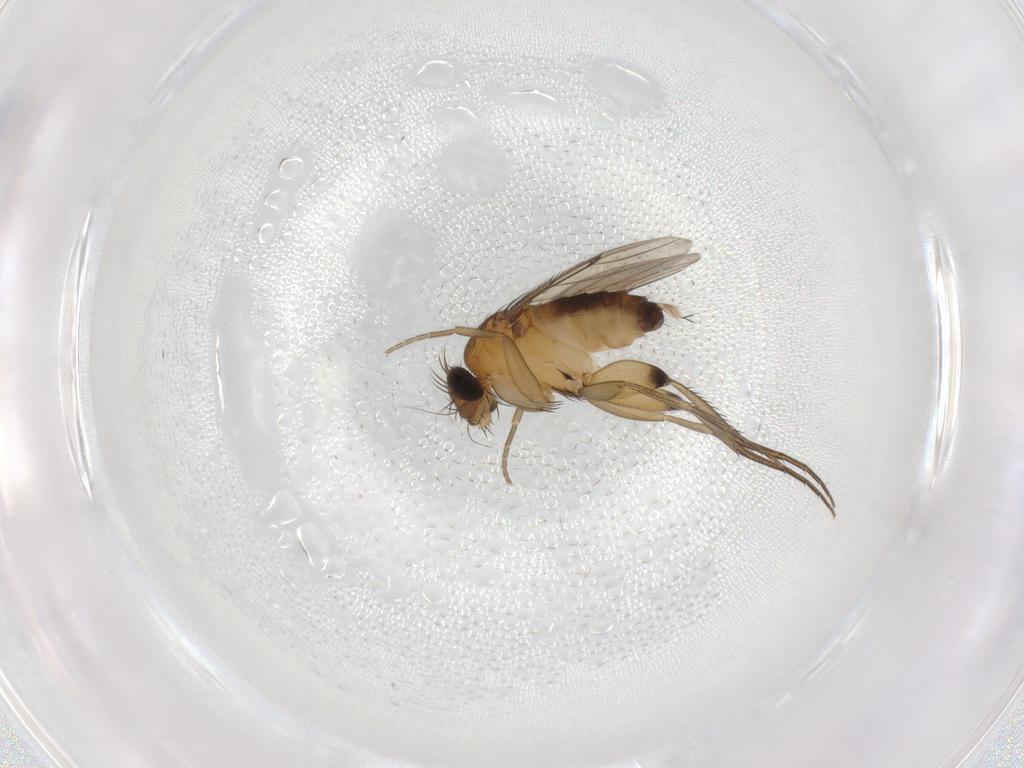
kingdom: Animalia
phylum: Arthropoda
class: Insecta
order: Diptera
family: Phoridae
